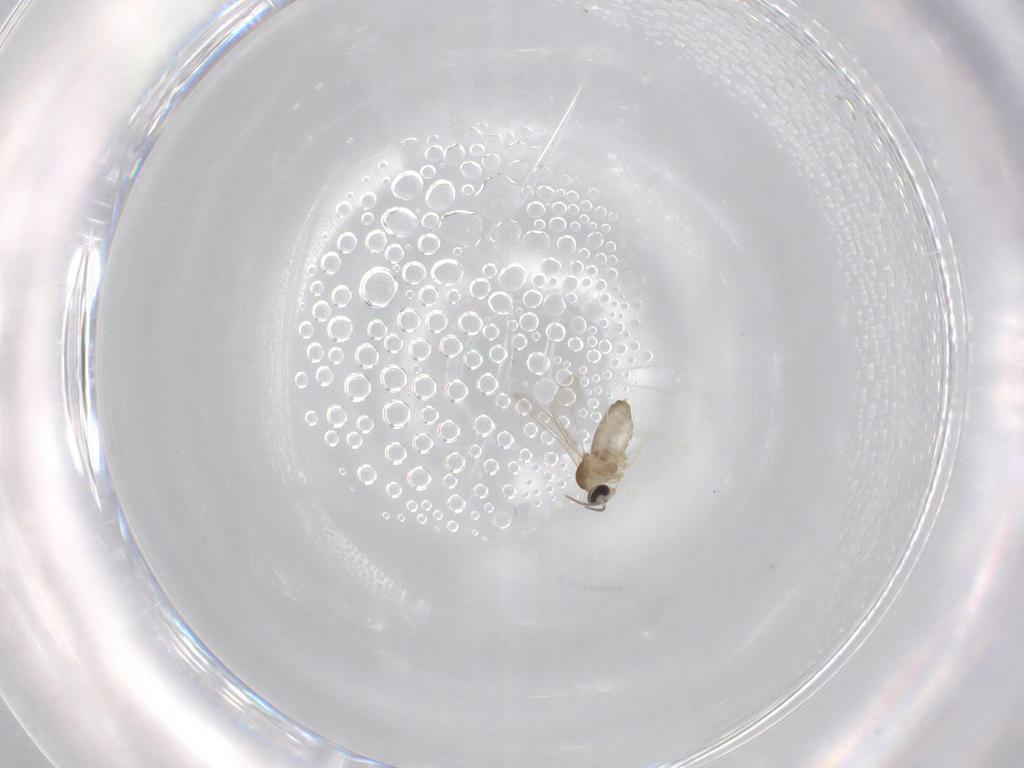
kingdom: Animalia
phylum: Arthropoda
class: Insecta
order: Diptera
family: Cecidomyiidae
